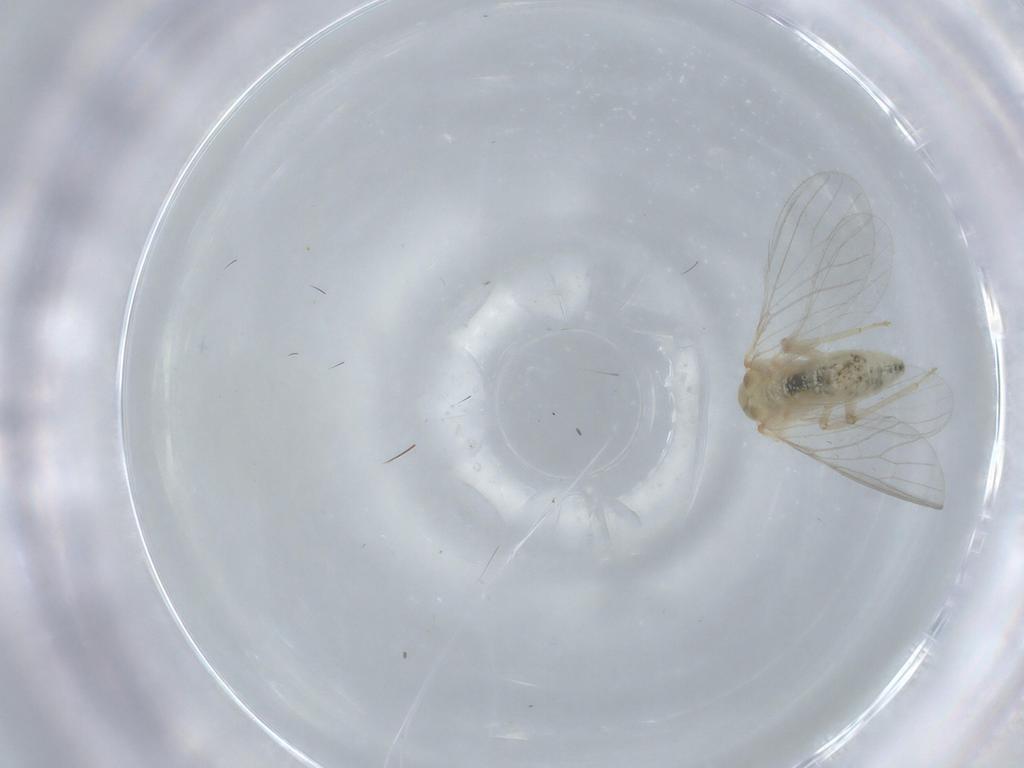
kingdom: Animalia
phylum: Arthropoda
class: Insecta
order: Neuroptera
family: Coniopterygidae
